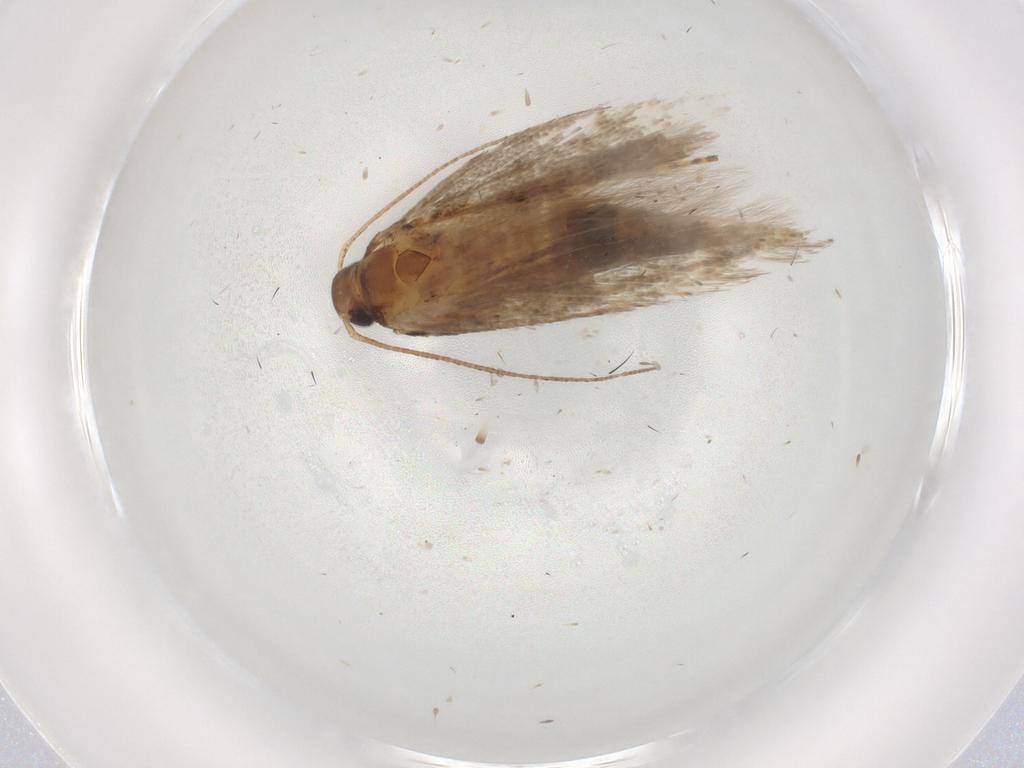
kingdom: Animalia
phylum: Arthropoda
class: Insecta
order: Lepidoptera
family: Gelechiidae
